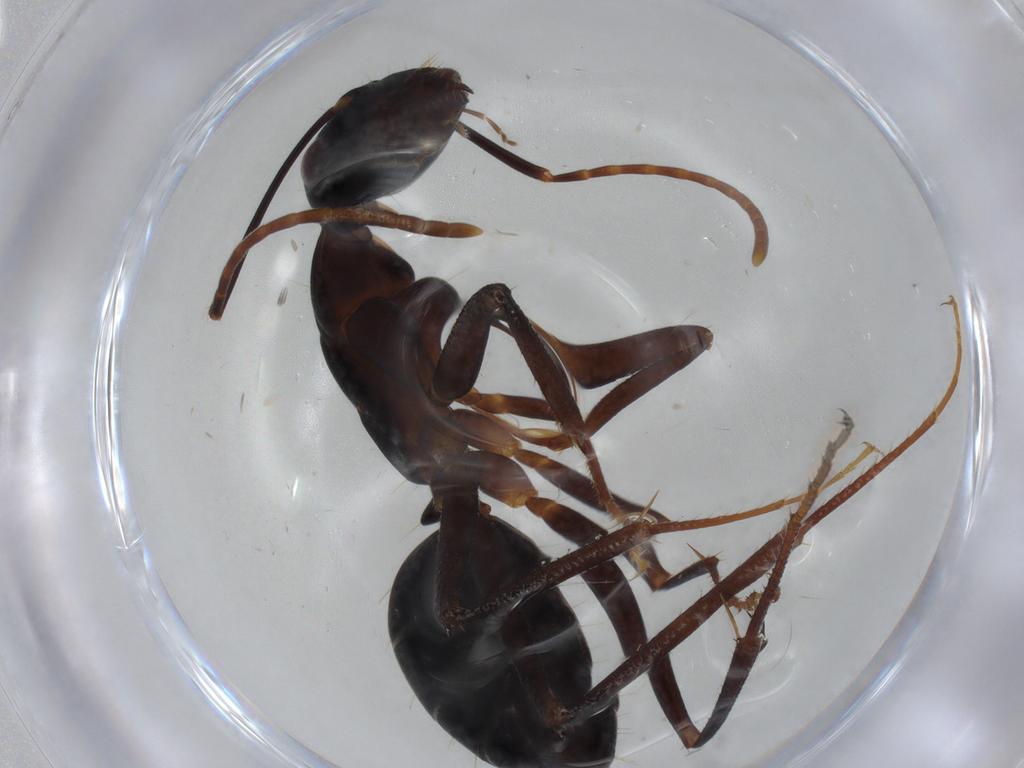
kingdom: Animalia
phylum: Arthropoda
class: Insecta
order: Hymenoptera
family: Formicidae
